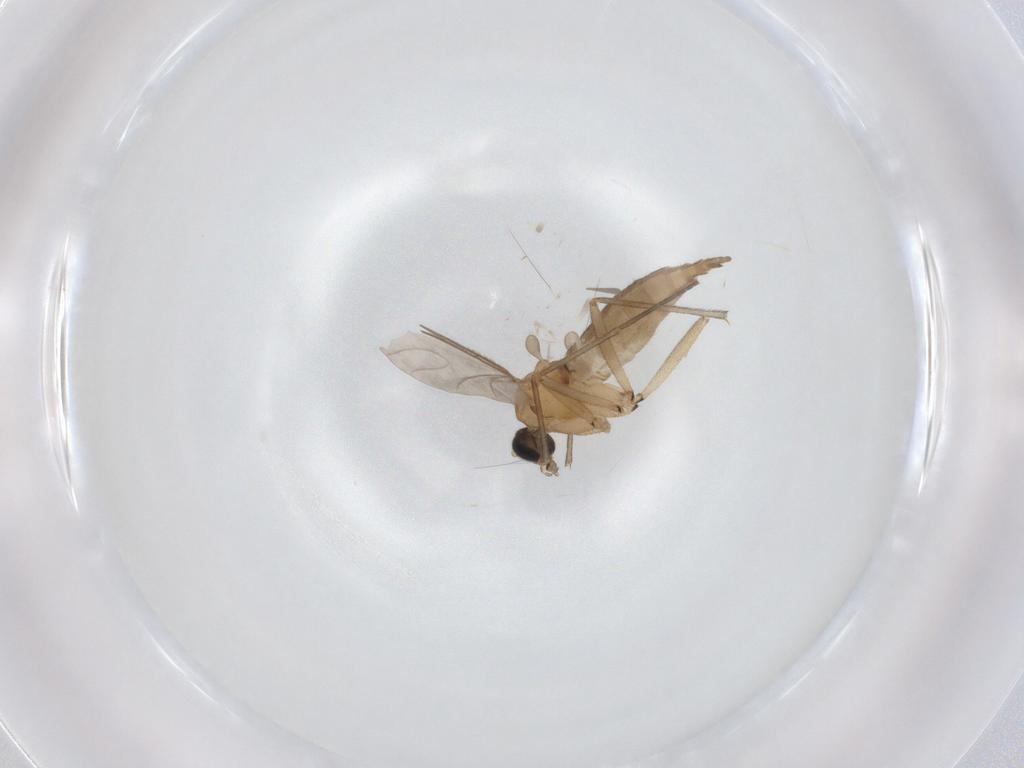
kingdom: Animalia
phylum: Arthropoda
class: Insecta
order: Diptera
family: Sciaridae
